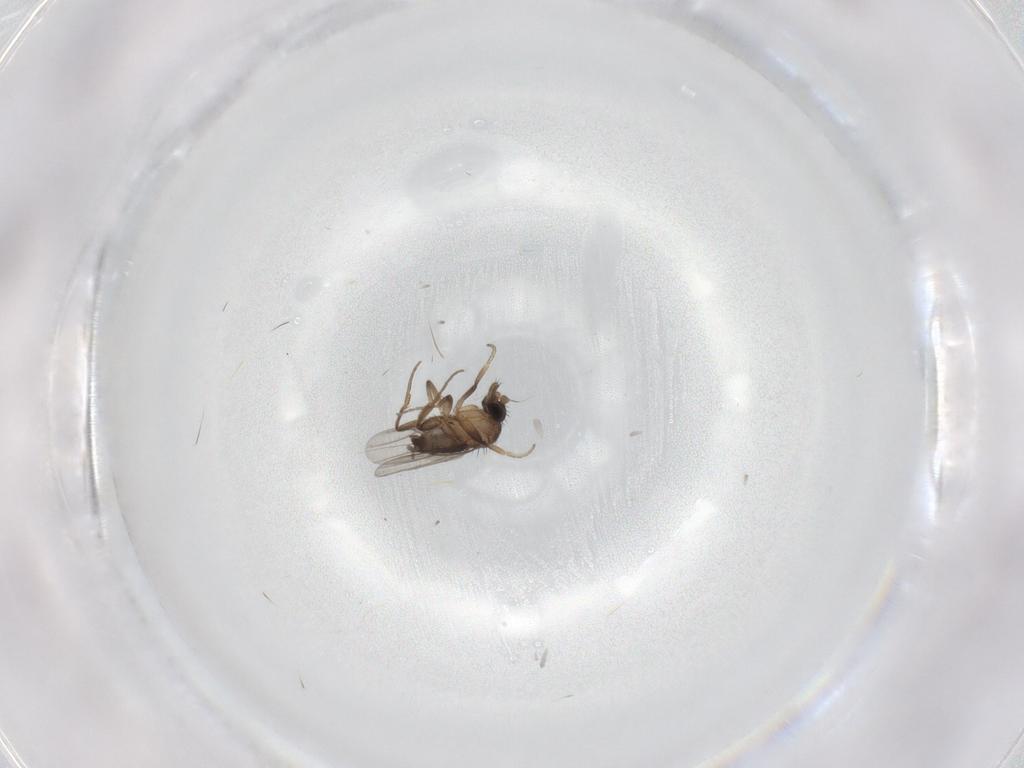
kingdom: Animalia
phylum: Arthropoda
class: Insecta
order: Diptera
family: Phoridae
